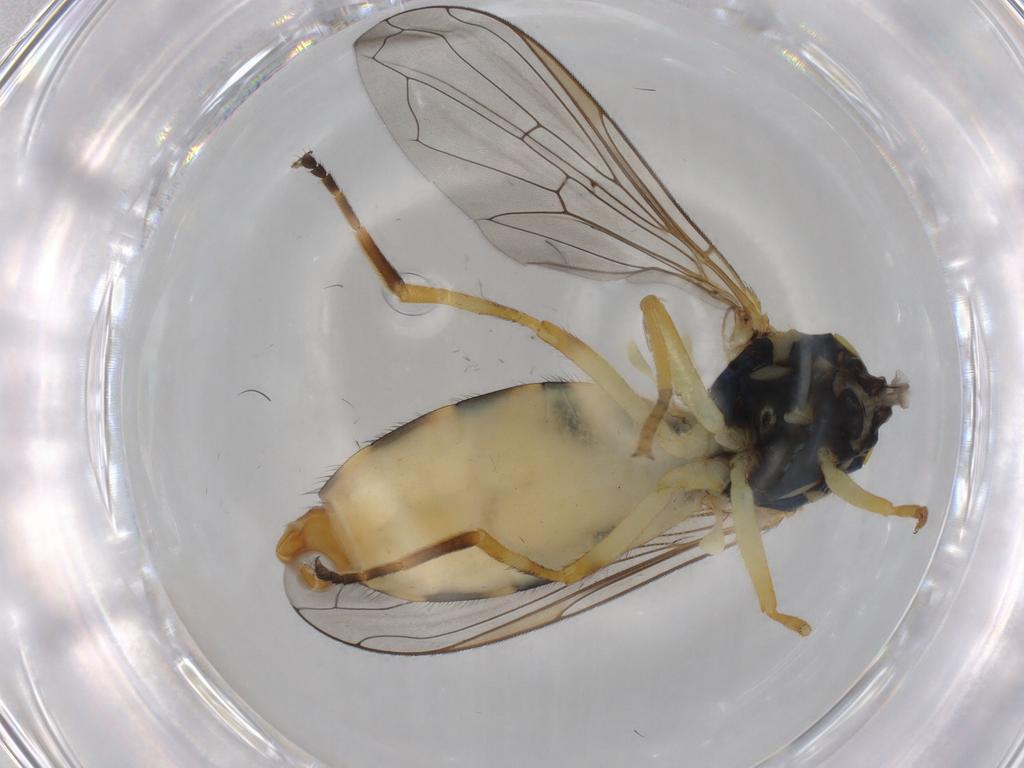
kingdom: Animalia
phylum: Arthropoda
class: Insecta
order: Diptera
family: Syrphidae
